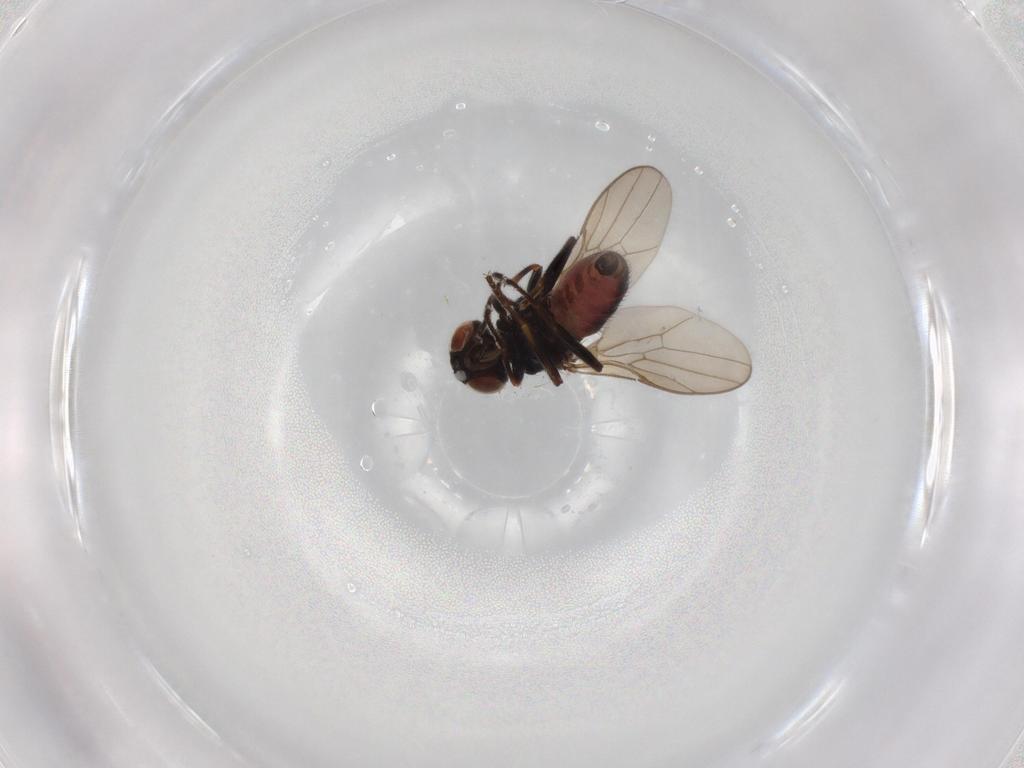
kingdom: Animalia
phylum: Arthropoda
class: Insecta
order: Diptera
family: Chloropidae
